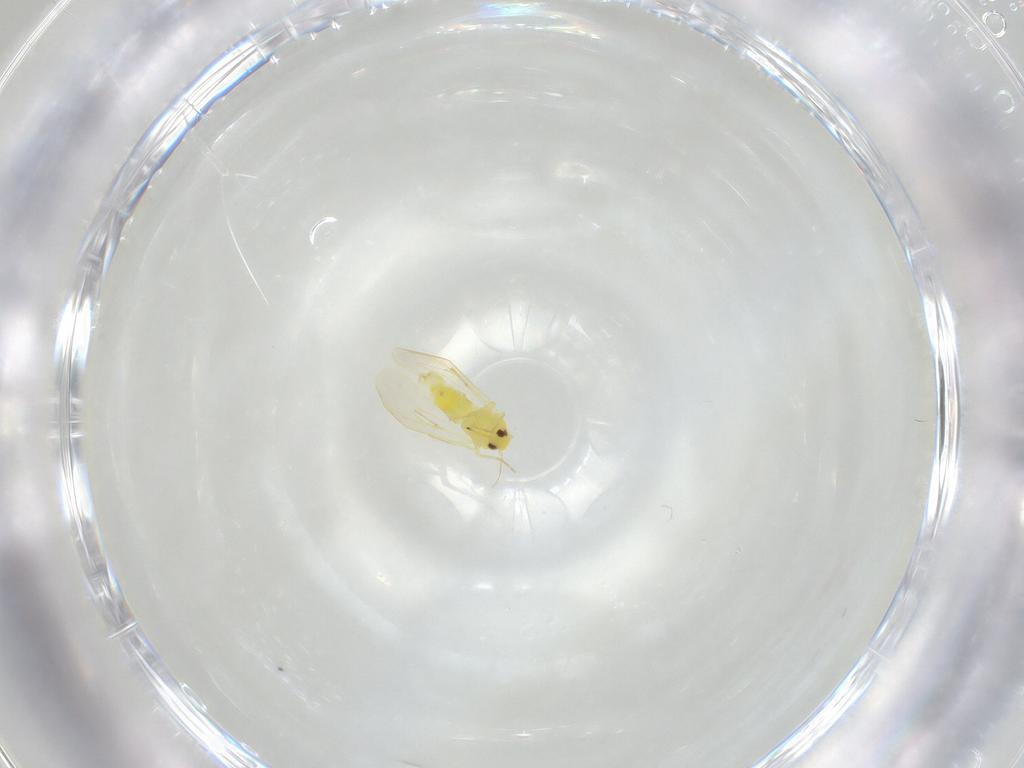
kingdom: Animalia
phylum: Arthropoda
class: Insecta
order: Hemiptera
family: Aleyrodidae
